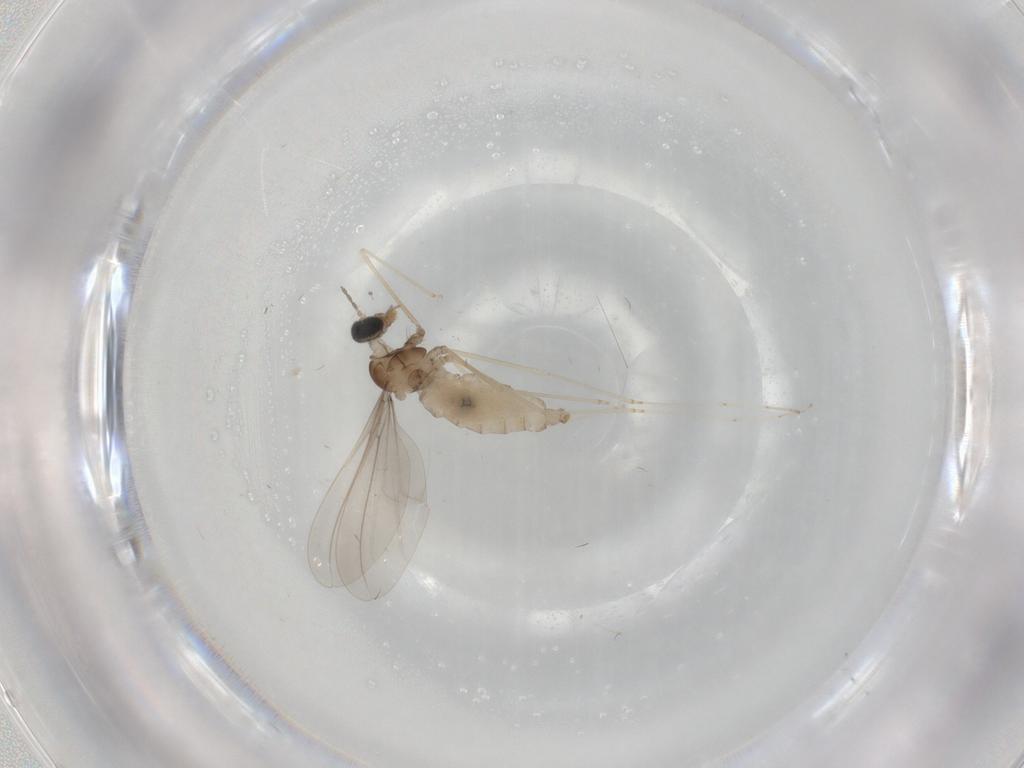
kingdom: Animalia
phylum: Arthropoda
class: Insecta
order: Diptera
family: Cecidomyiidae
